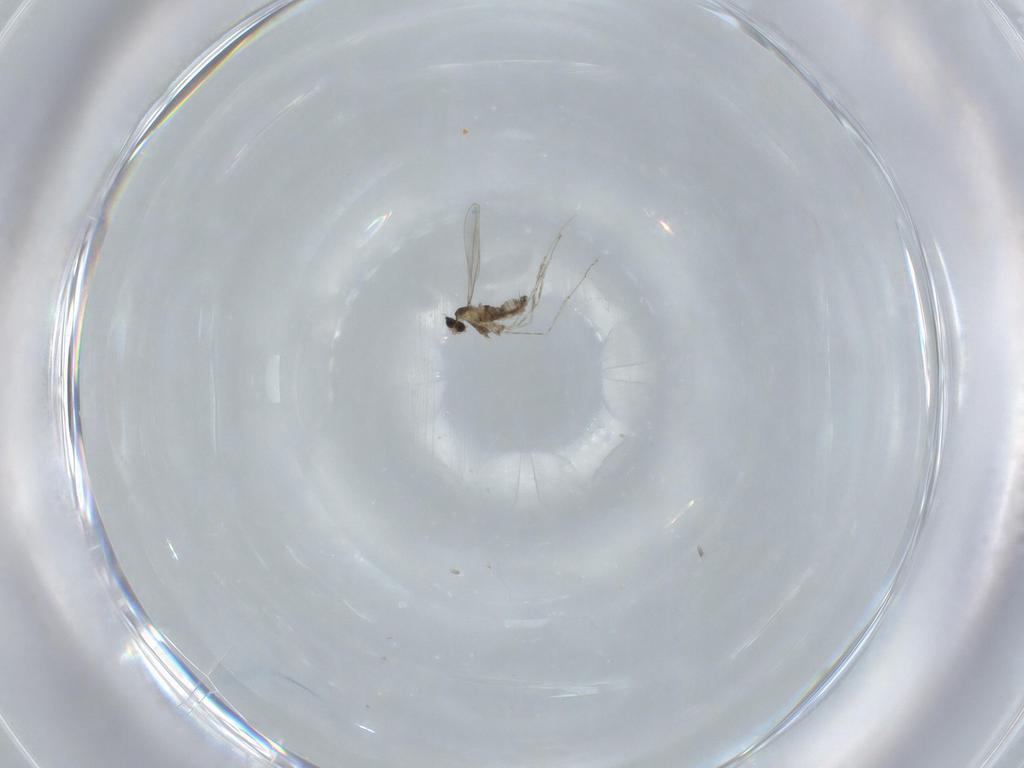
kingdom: Animalia
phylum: Arthropoda
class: Insecta
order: Diptera
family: Cecidomyiidae
